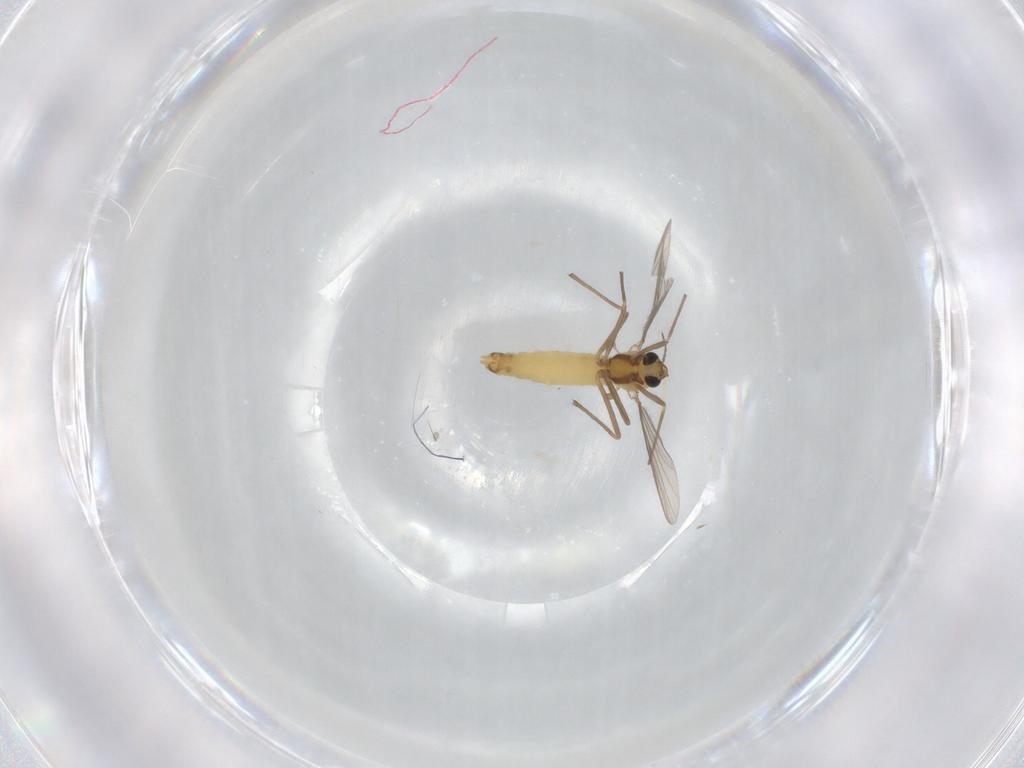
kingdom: Animalia
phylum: Arthropoda
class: Insecta
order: Diptera
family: Chironomidae
